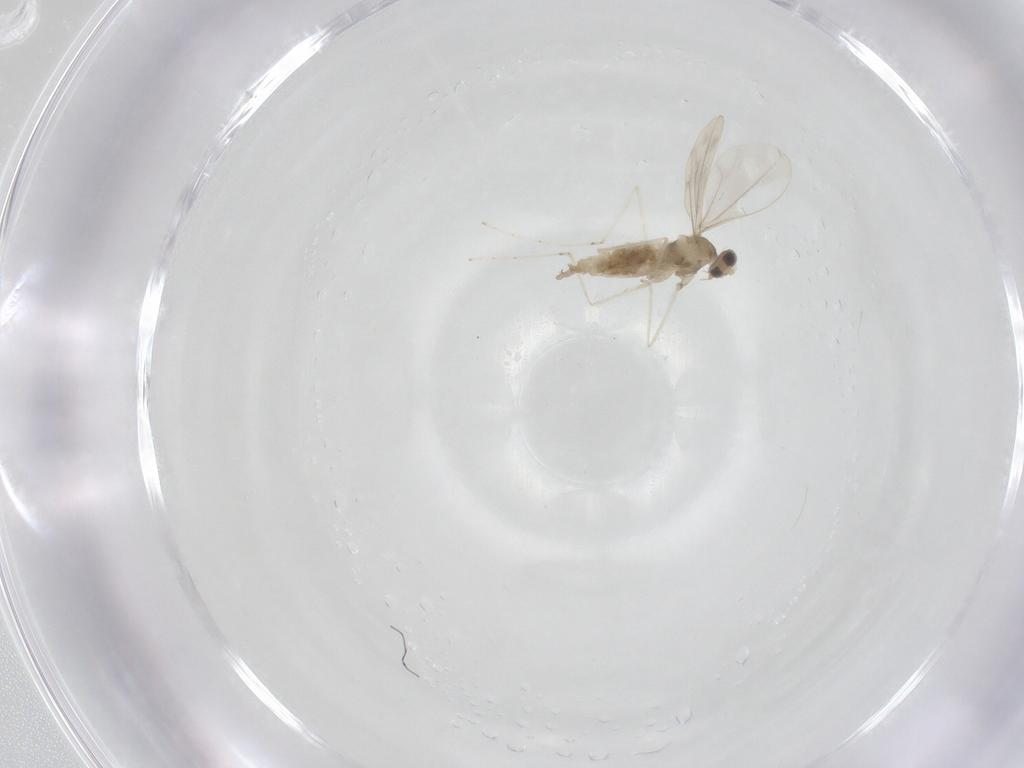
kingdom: Animalia
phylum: Arthropoda
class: Insecta
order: Diptera
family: Cecidomyiidae
